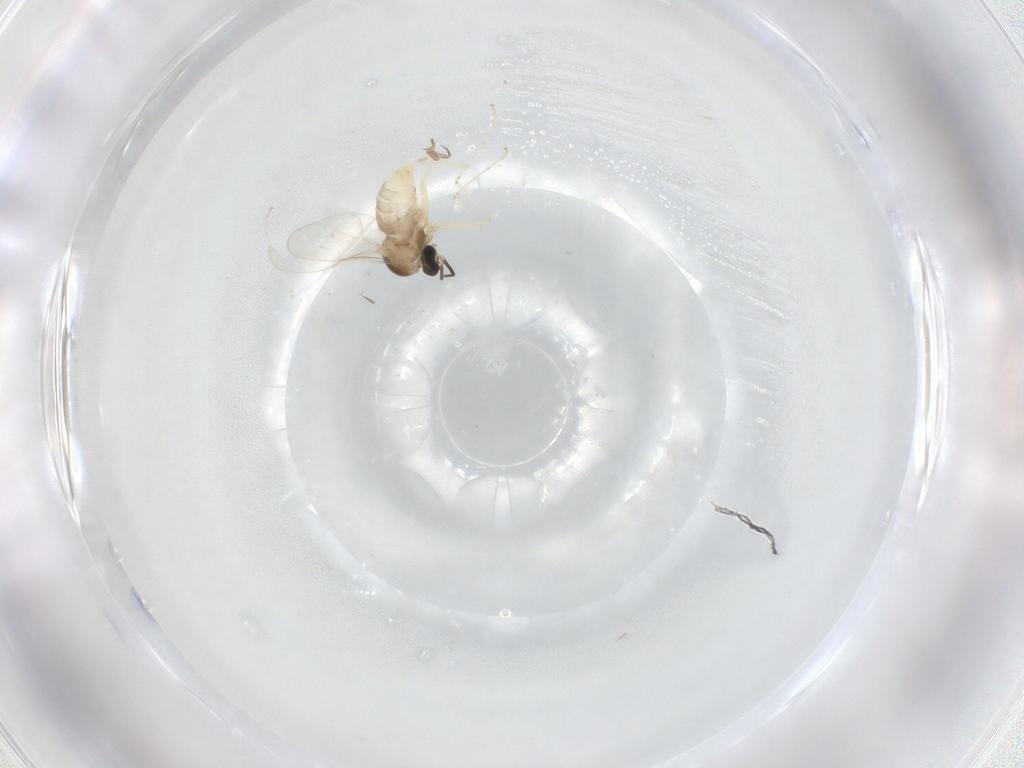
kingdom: Animalia
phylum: Arthropoda
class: Insecta
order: Diptera
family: Cecidomyiidae
